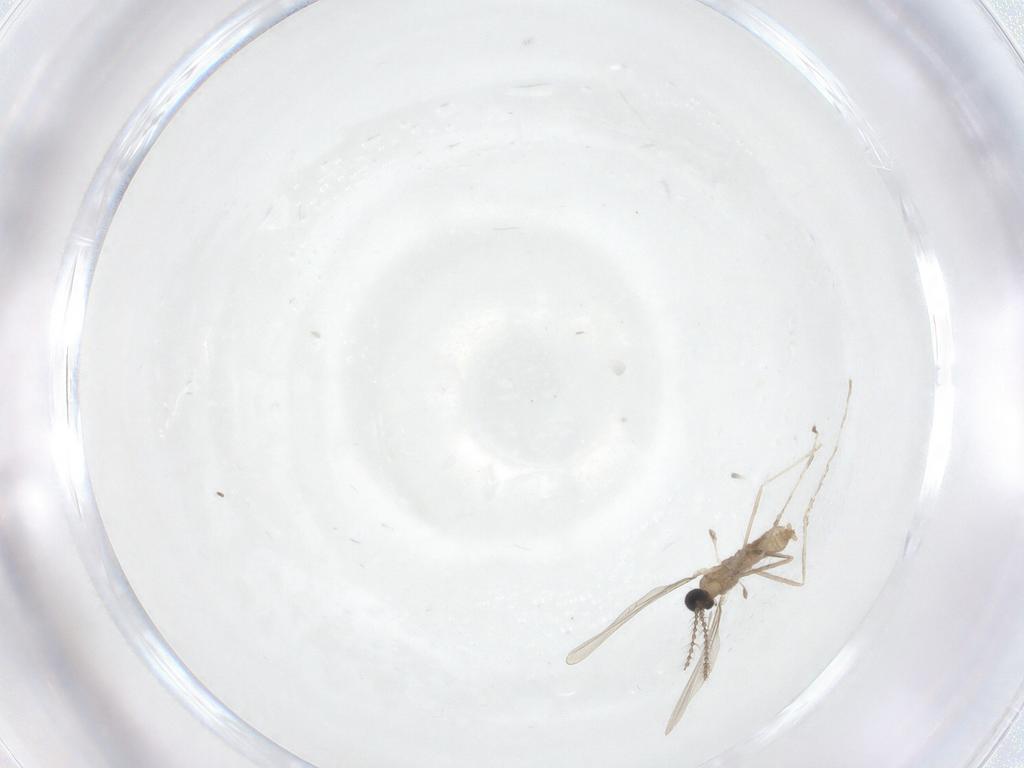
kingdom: Animalia
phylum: Arthropoda
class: Insecta
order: Diptera
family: Cecidomyiidae
